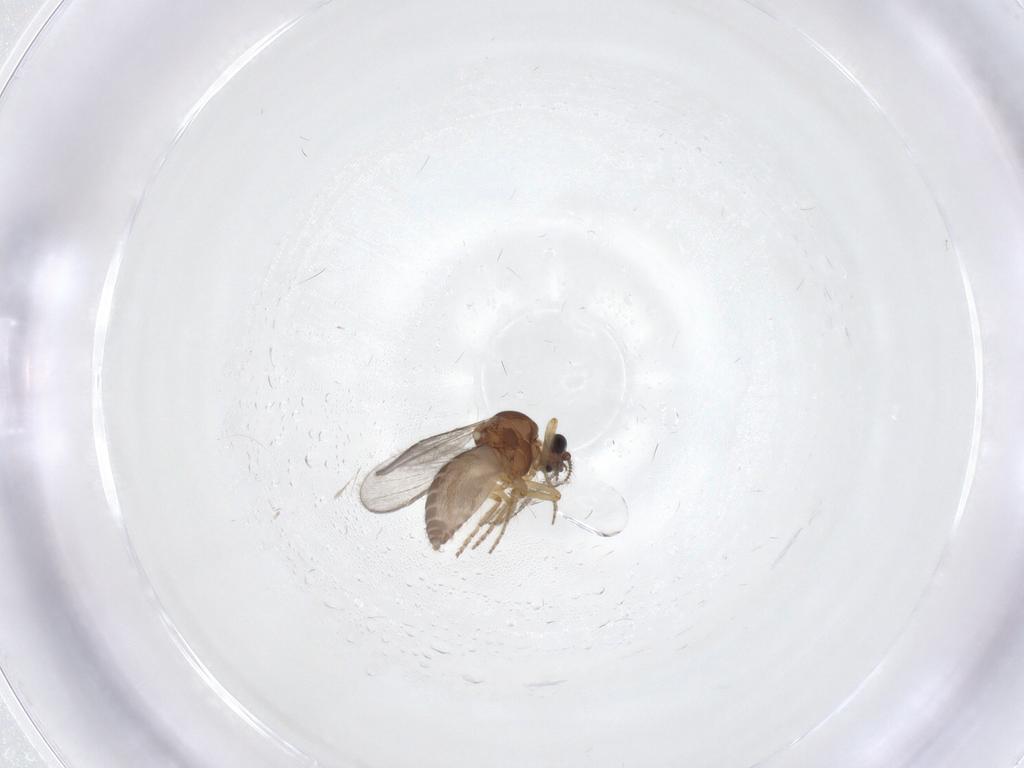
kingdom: Animalia
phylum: Arthropoda
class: Insecta
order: Diptera
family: Ceratopogonidae
